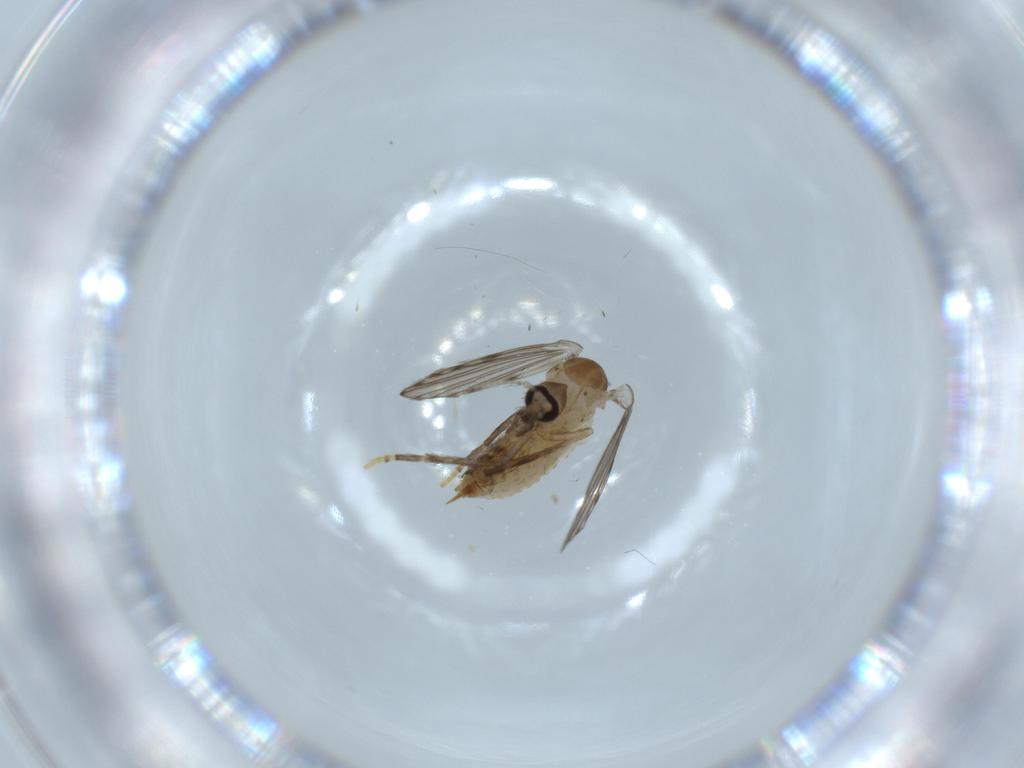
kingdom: Animalia
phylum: Arthropoda
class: Insecta
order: Diptera
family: Psychodidae
